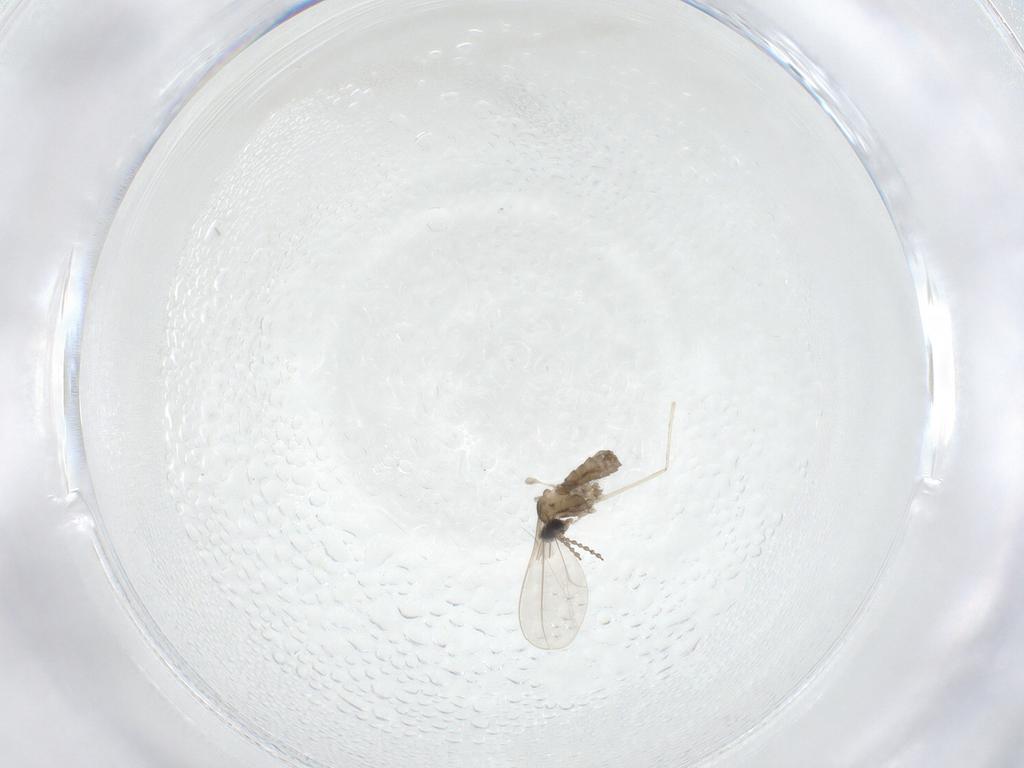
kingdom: Animalia
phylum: Arthropoda
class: Insecta
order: Diptera
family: Cecidomyiidae
